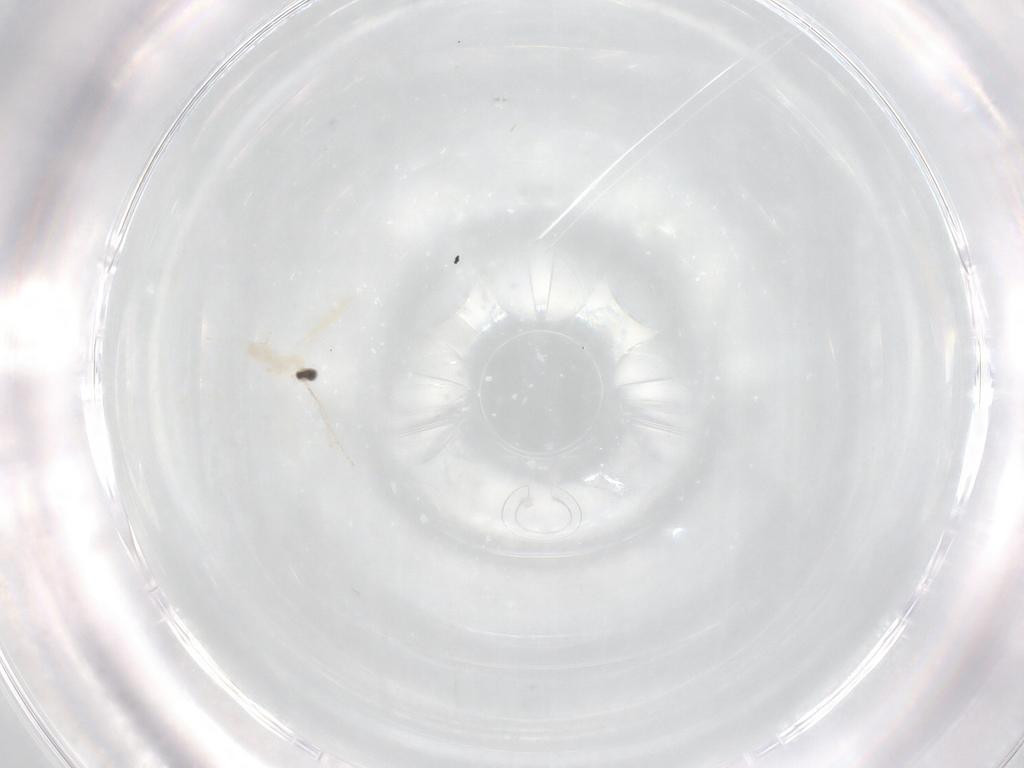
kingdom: Animalia
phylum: Arthropoda
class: Insecta
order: Diptera
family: Cecidomyiidae
